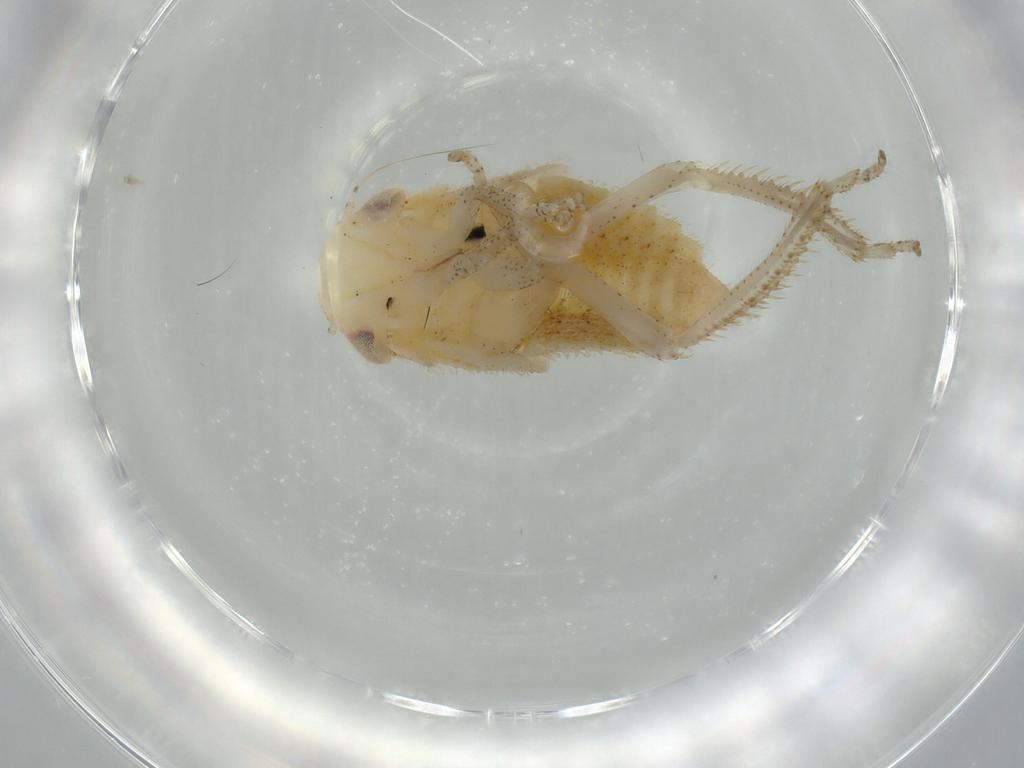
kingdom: Animalia
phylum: Arthropoda
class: Insecta
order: Hemiptera
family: Cicadellidae
